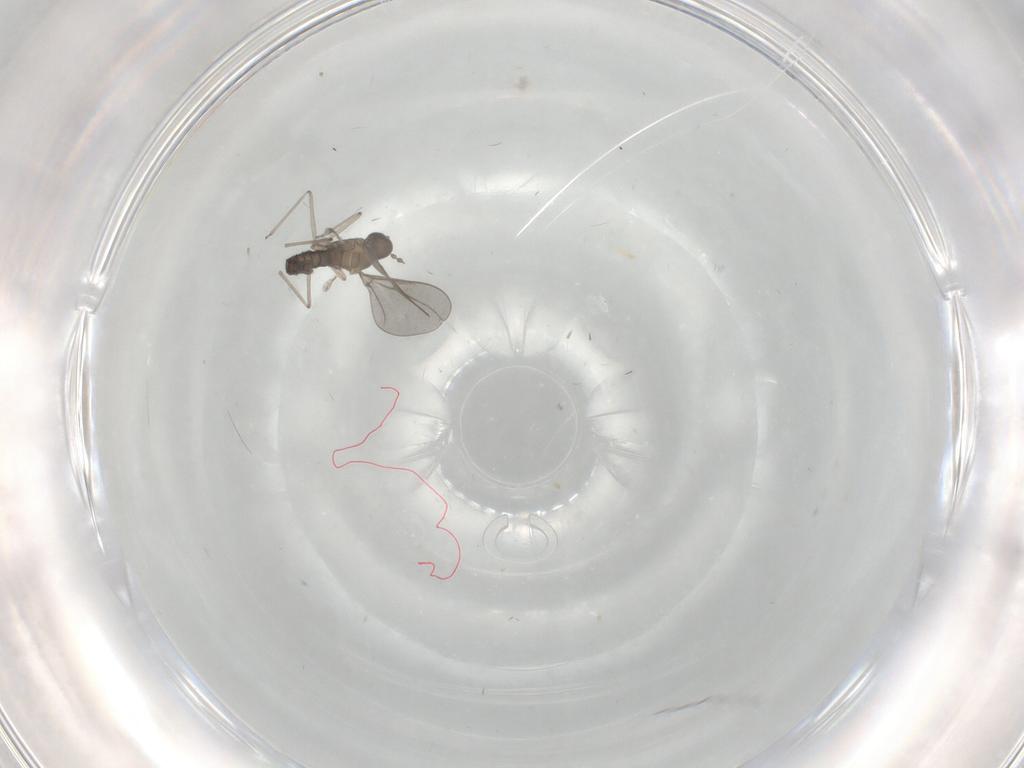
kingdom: Animalia
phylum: Arthropoda
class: Insecta
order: Diptera
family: Cecidomyiidae
